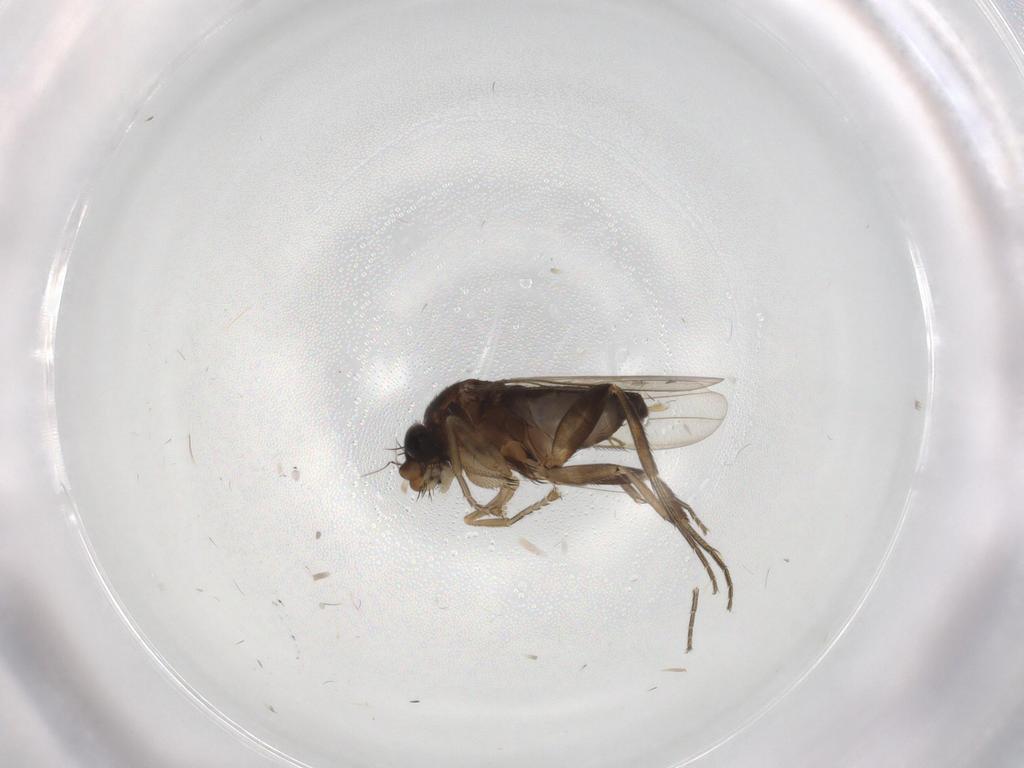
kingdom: Animalia
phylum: Arthropoda
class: Insecta
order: Diptera
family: Phoridae
